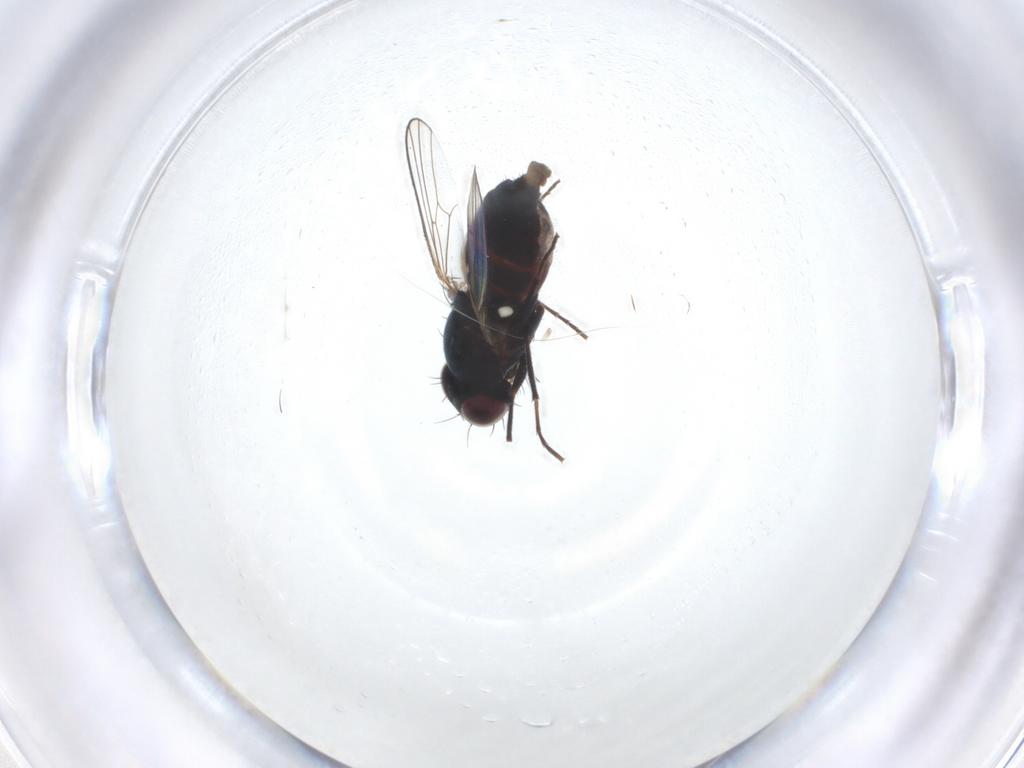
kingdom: Animalia
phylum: Arthropoda
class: Insecta
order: Diptera
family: Carnidae
